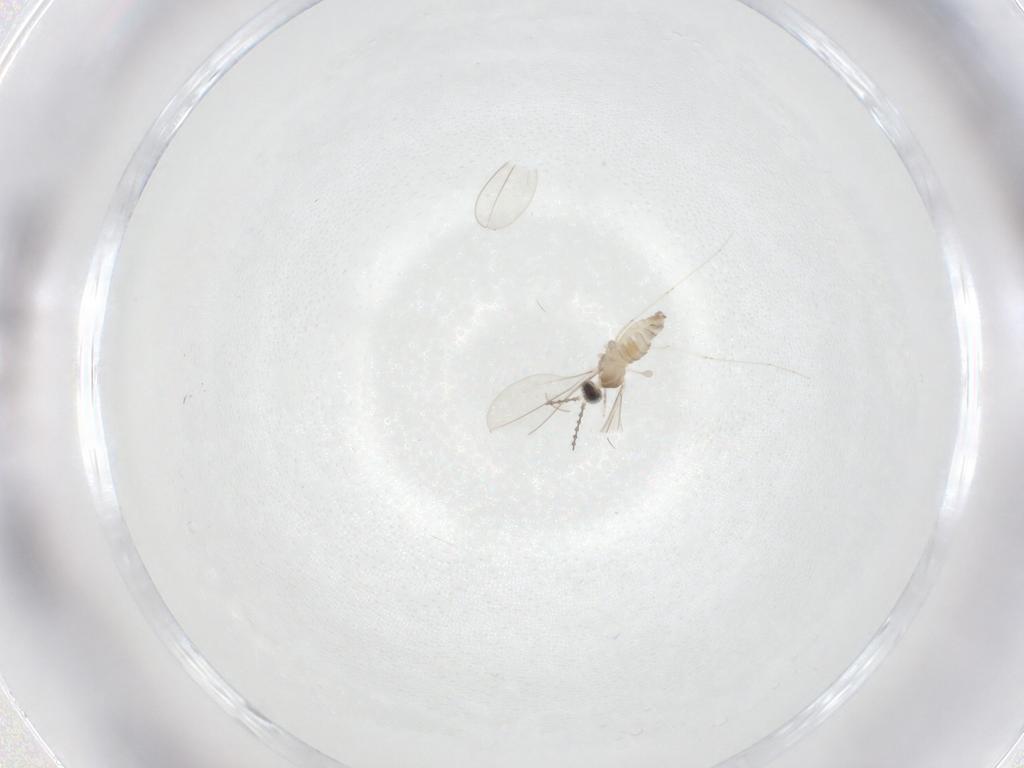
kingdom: Animalia
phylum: Arthropoda
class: Insecta
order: Diptera
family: Cecidomyiidae
